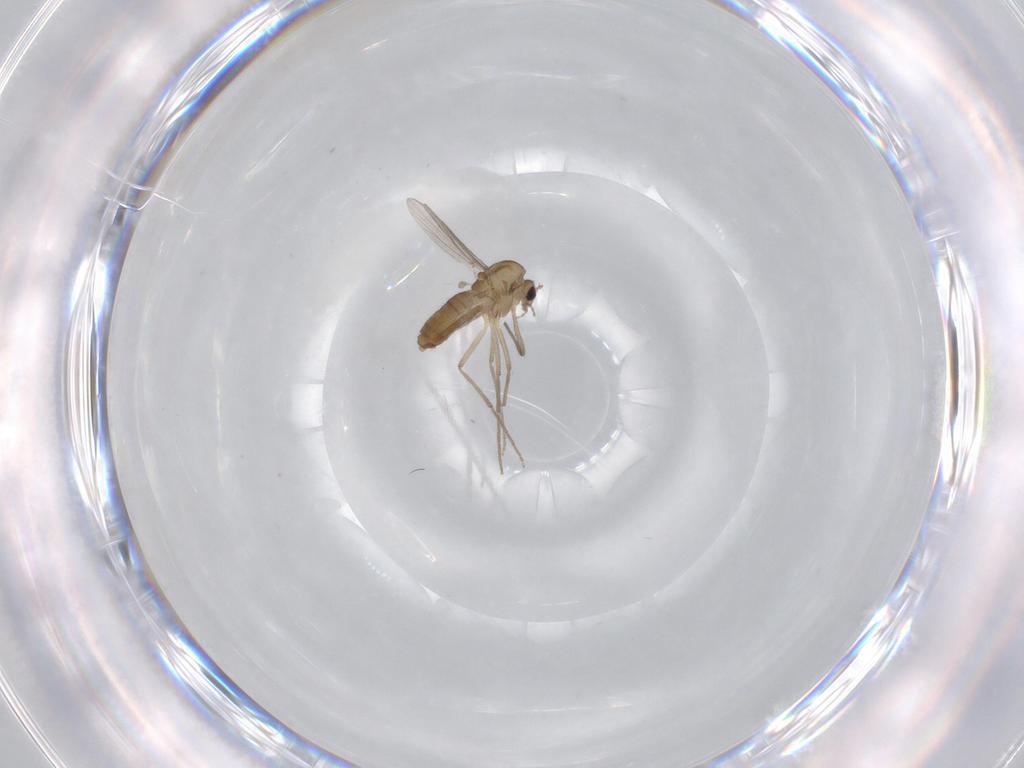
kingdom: Animalia
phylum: Arthropoda
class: Insecta
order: Diptera
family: Chironomidae
